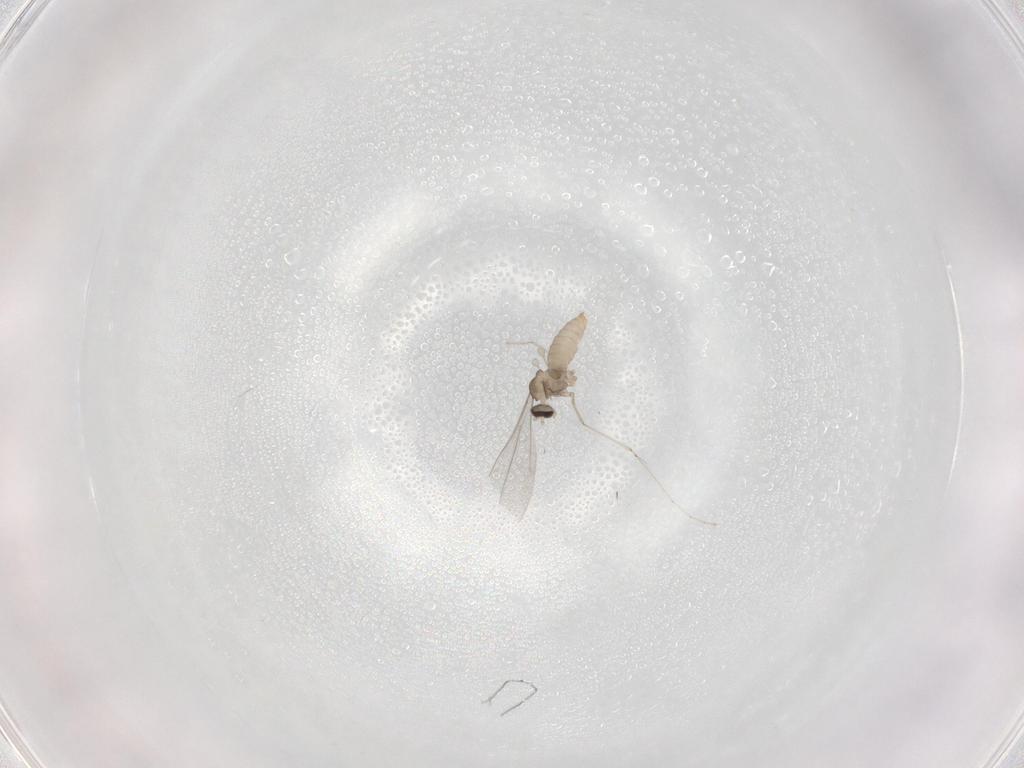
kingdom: Animalia
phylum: Arthropoda
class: Insecta
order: Diptera
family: Cecidomyiidae
